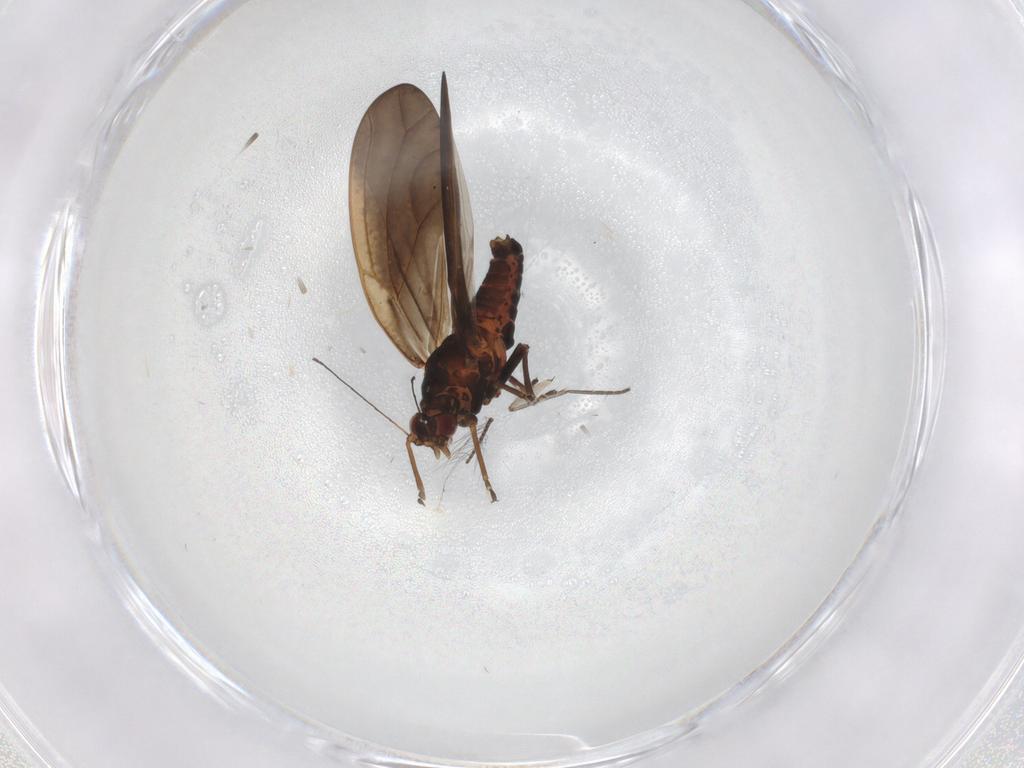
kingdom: Animalia
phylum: Arthropoda
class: Insecta
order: Hemiptera
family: Triozidae
